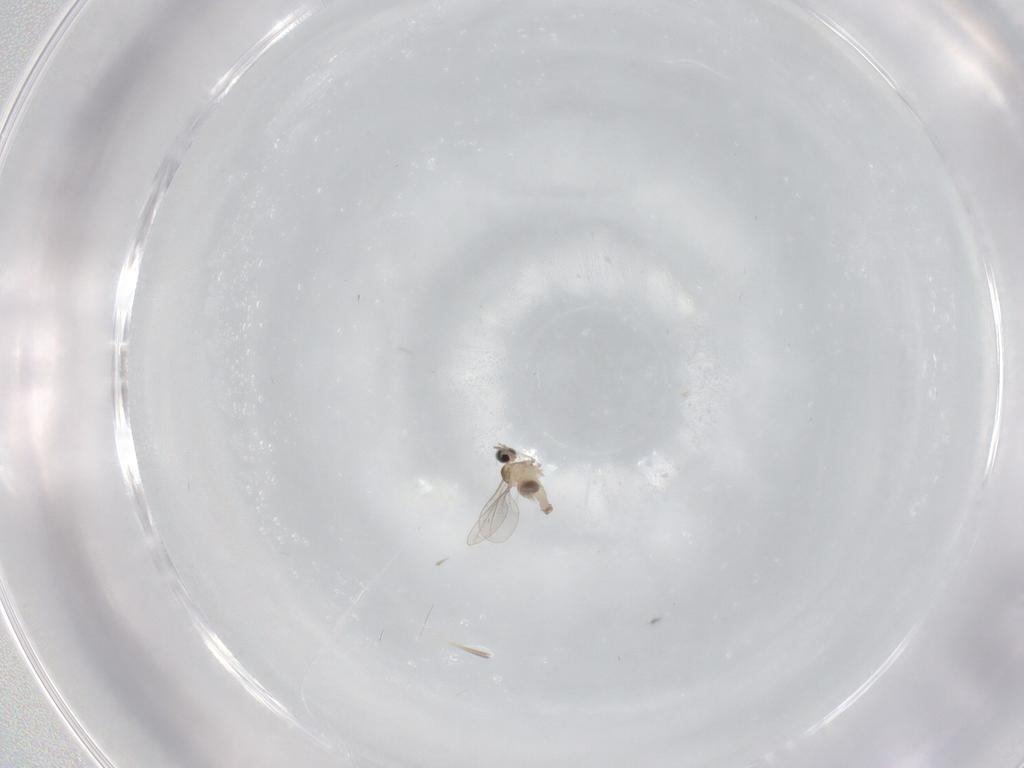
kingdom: Animalia
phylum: Arthropoda
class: Insecta
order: Diptera
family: Cecidomyiidae
